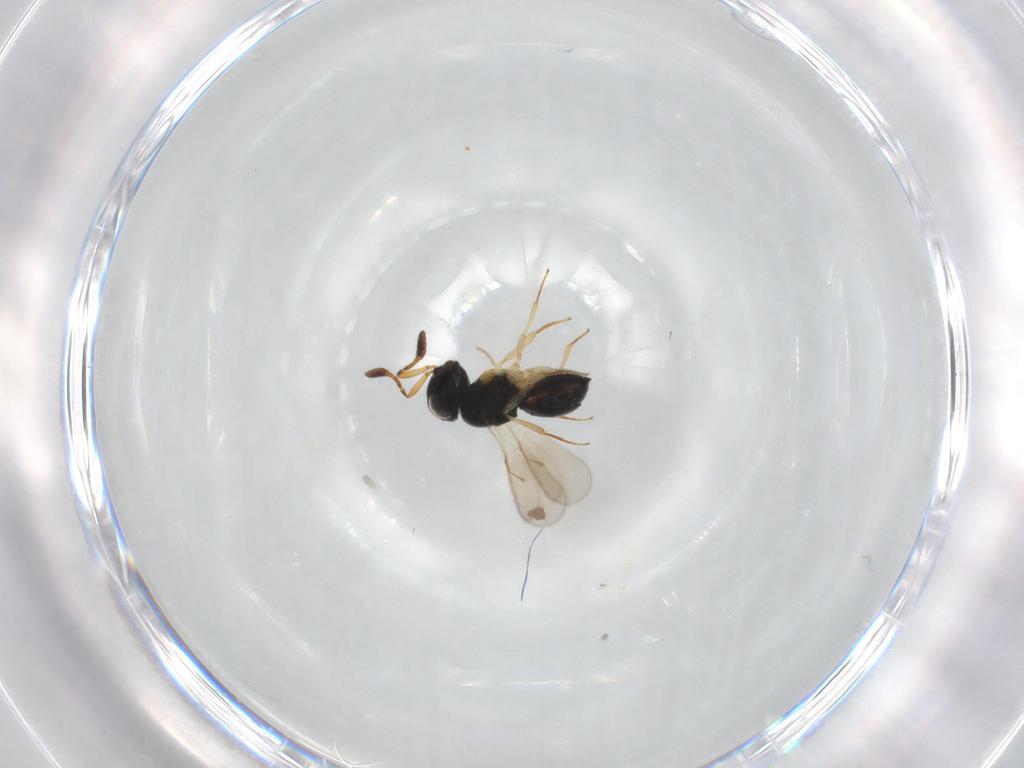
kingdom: Animalia
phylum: Arthropoda
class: Insecta
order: Hymenoptera
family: Scelionidae
